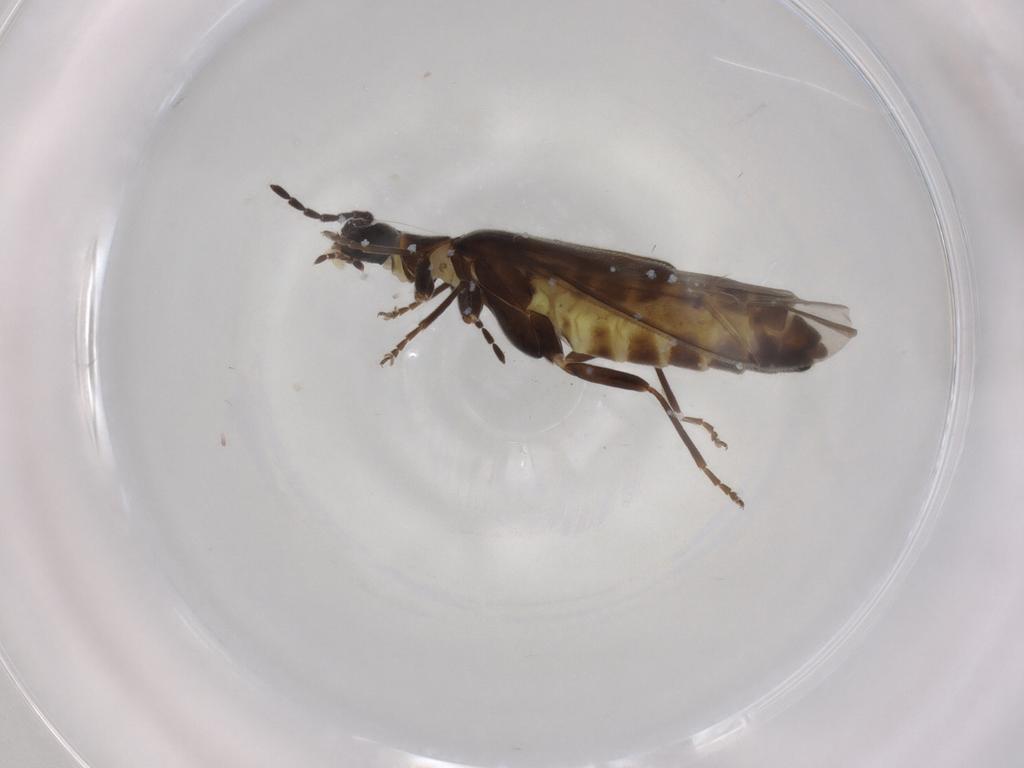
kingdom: Animalia
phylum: Arthropoda
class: Insecta
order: Coleoptera
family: Cantharidae
